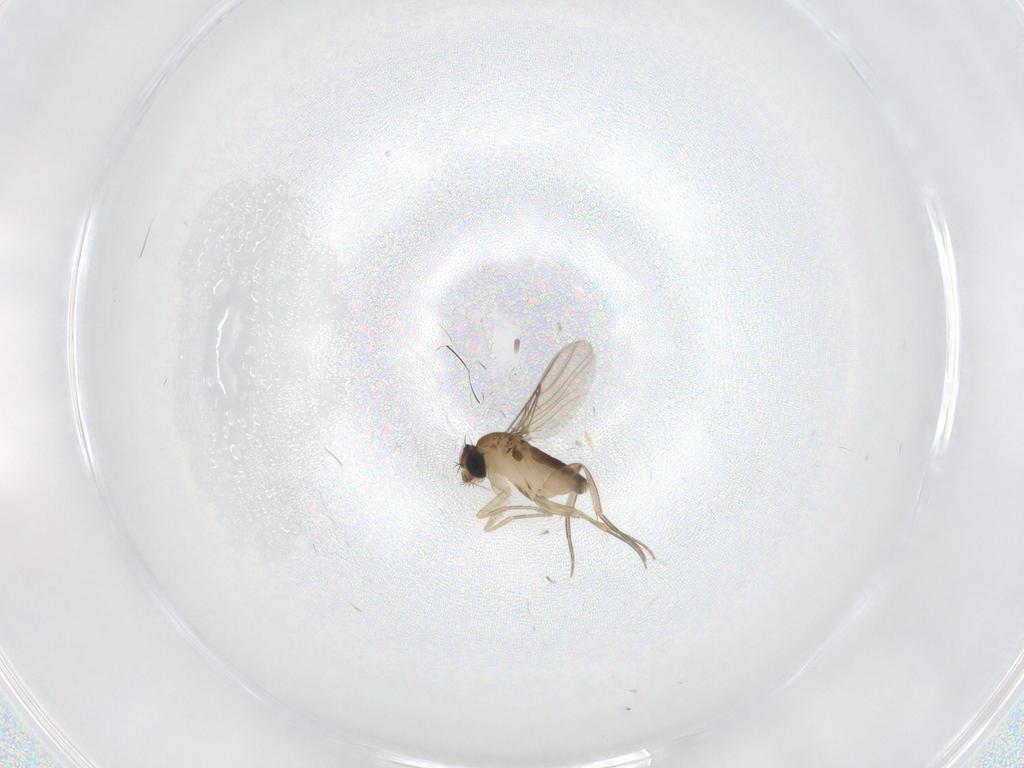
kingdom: Animalia
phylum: Arthropoda
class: Insecta
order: Diptera
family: Phoridae
